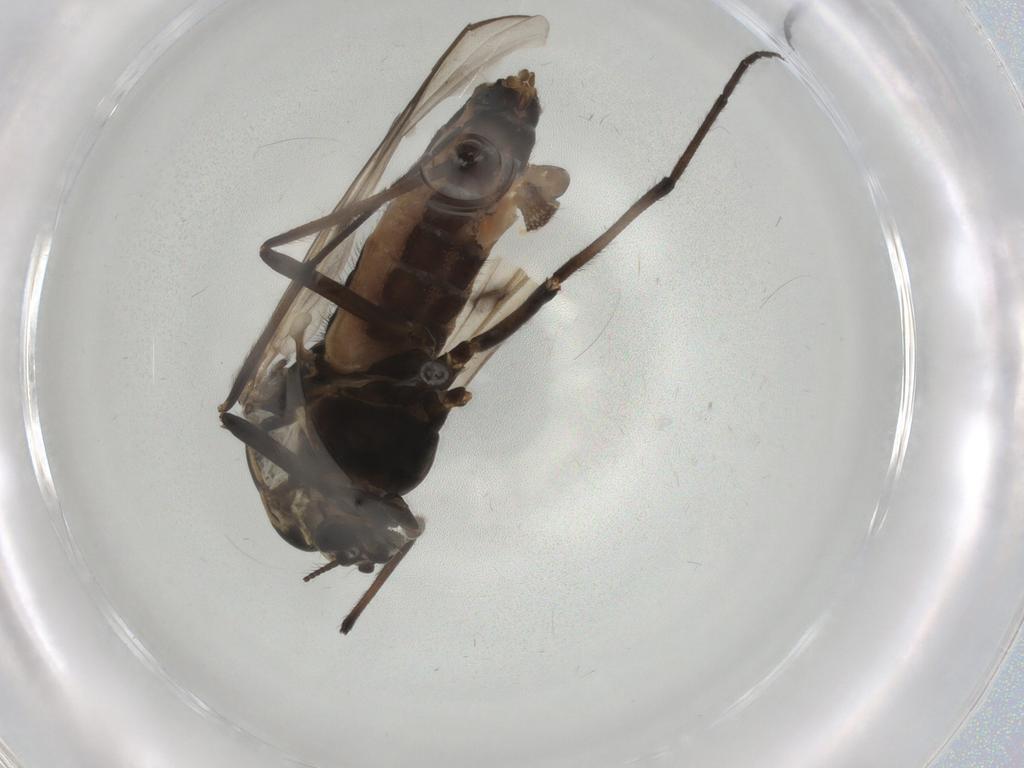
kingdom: Animalia
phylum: Arthropoda
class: Insecta
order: Diptera
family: Chironomidae
